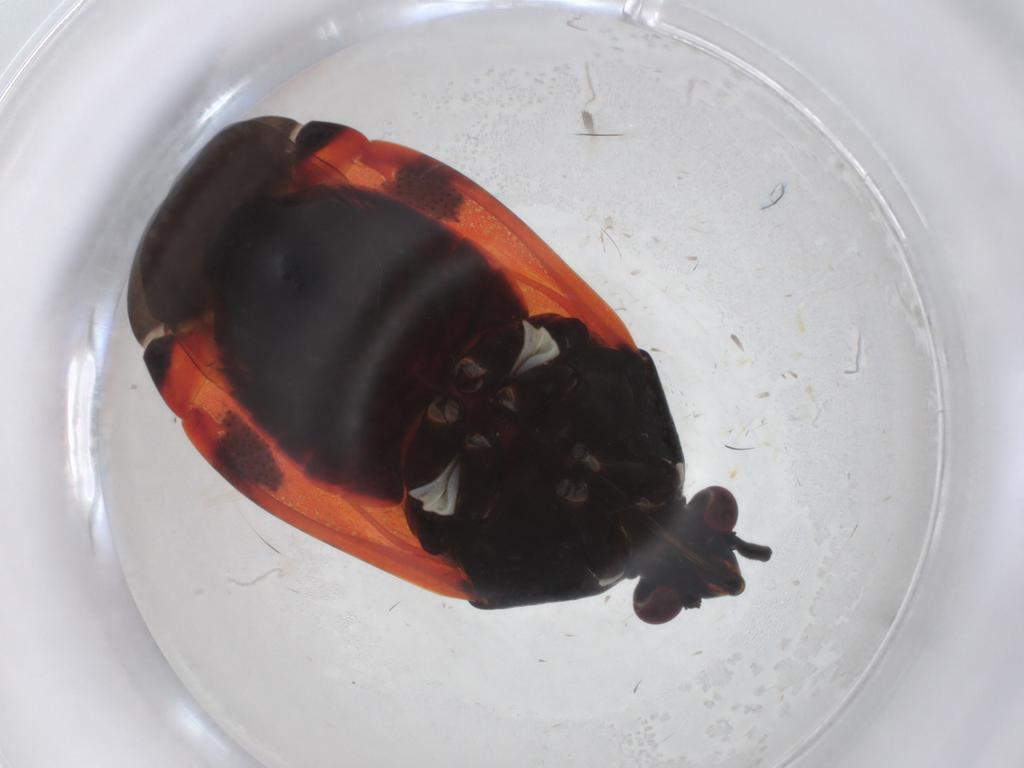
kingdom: Animalia
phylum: Arthropoda
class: Insecta
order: Hemiptera
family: Miridae
